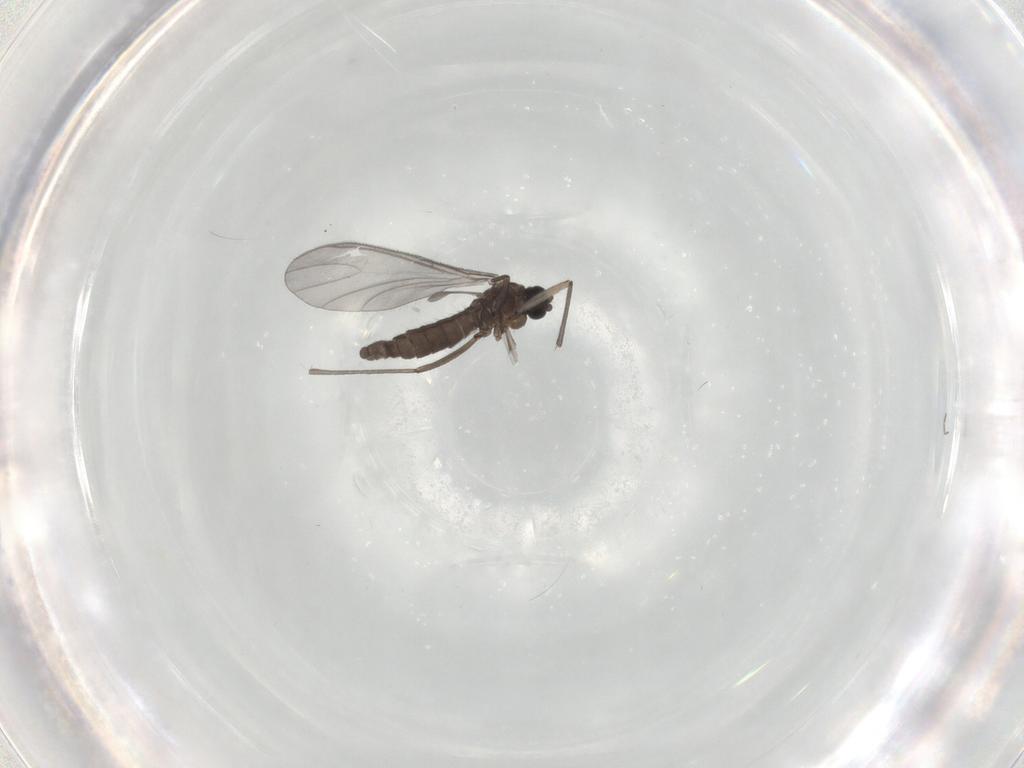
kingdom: Animalia
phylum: Arthropoda
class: Insecta
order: Diptera
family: Sciaridae
